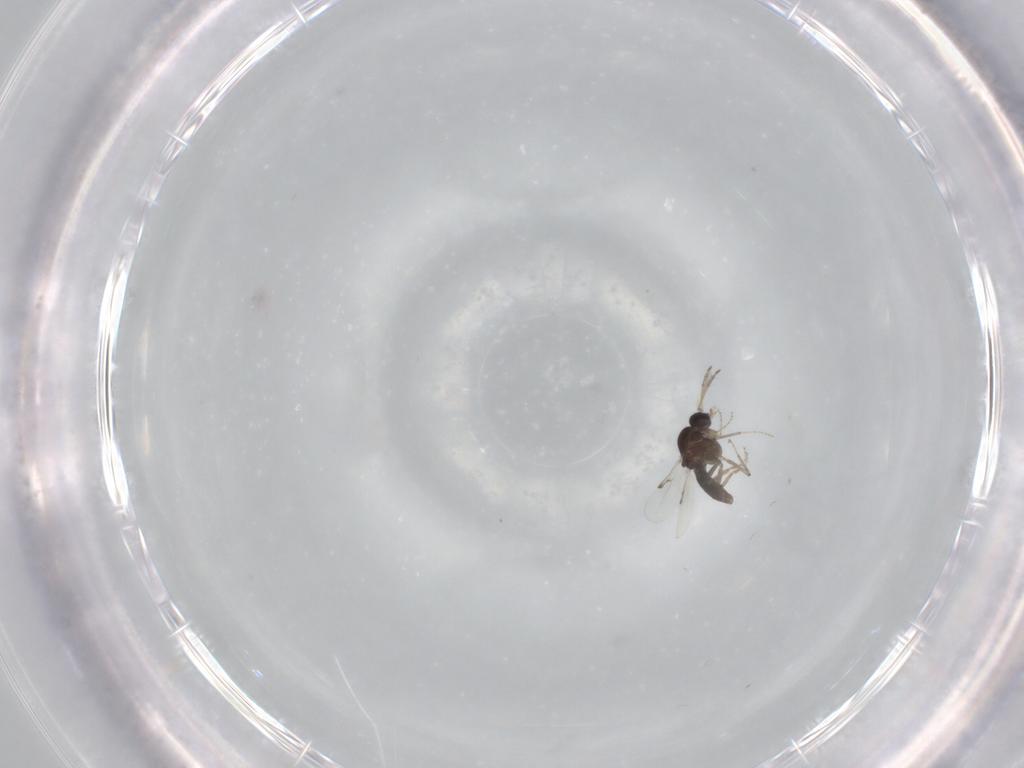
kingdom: Animalia
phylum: Arthropoda
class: Insecta
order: Diptera
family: Ceratopogonidae
